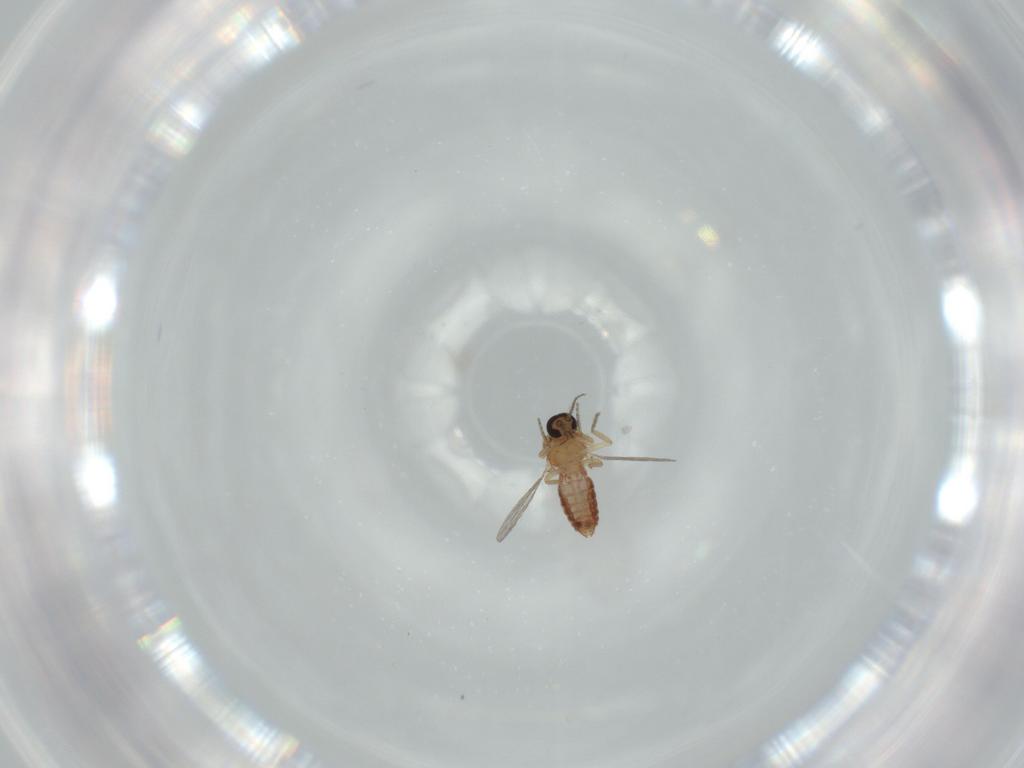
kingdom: Animalia
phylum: Arthropoda
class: Insecta
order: Diptera
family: Ceratopogonidae
